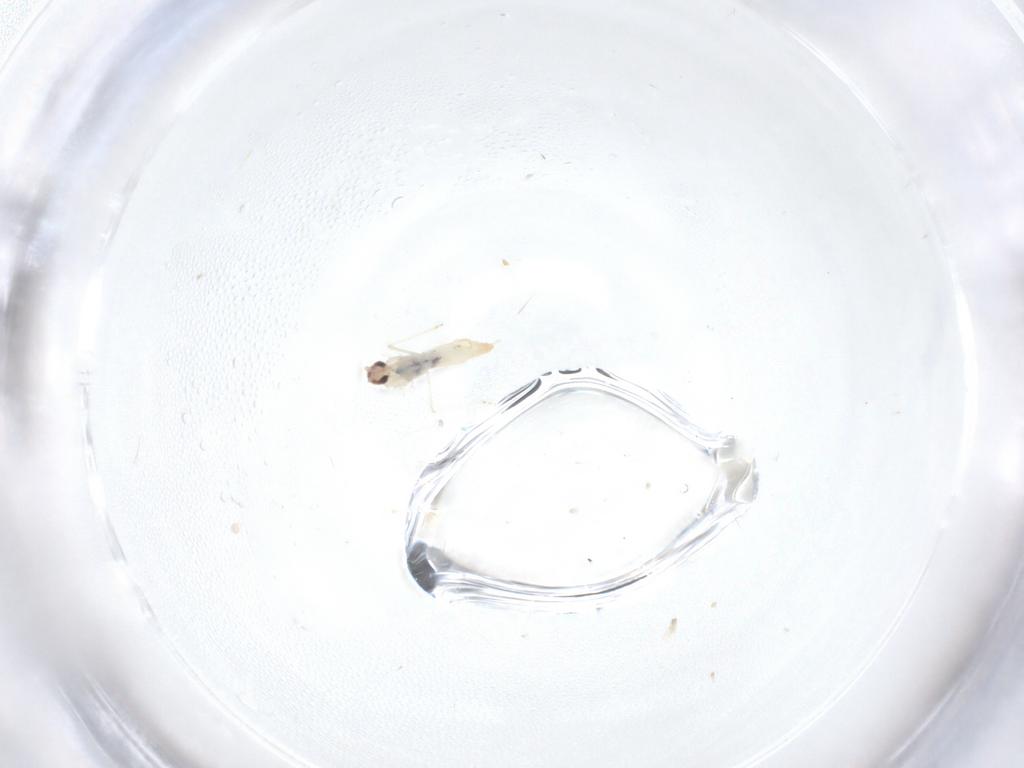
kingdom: Animalia
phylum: Arthropoda
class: Insecta
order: Diptera
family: Cecidomyiidae
